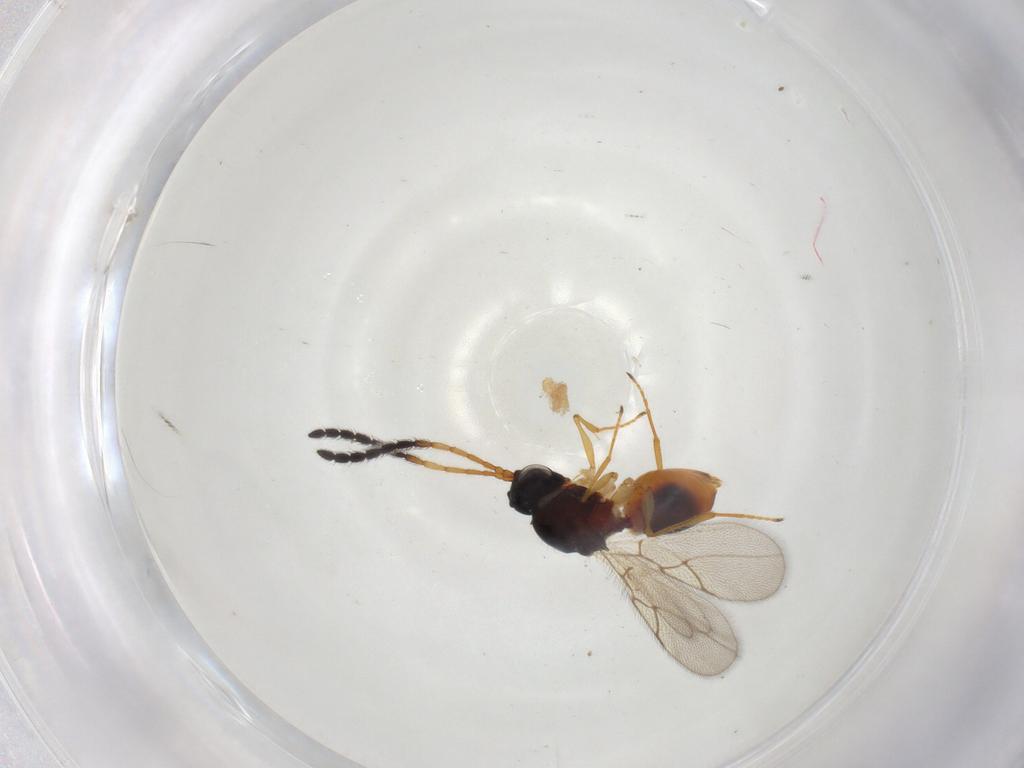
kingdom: Animalia
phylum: Arthropoda
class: Insecta
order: Hymenoptera
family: Figitidae
